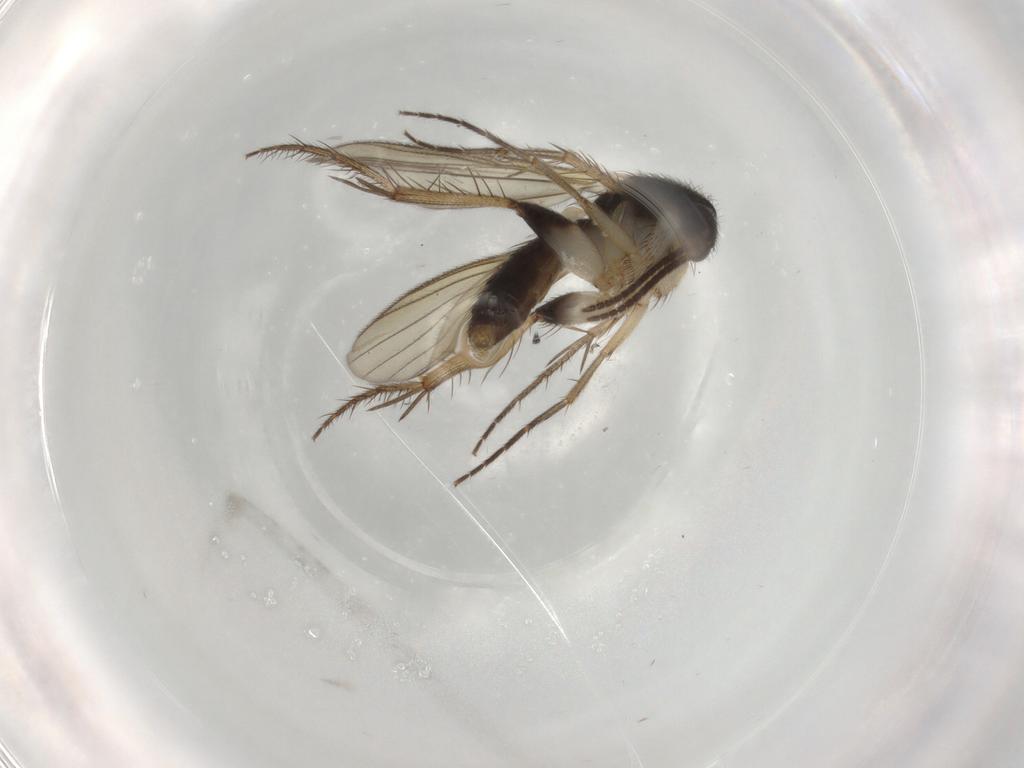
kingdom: Animalia
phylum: Arthropoda
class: Insecta
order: Diptera
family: Mycetophilidae
